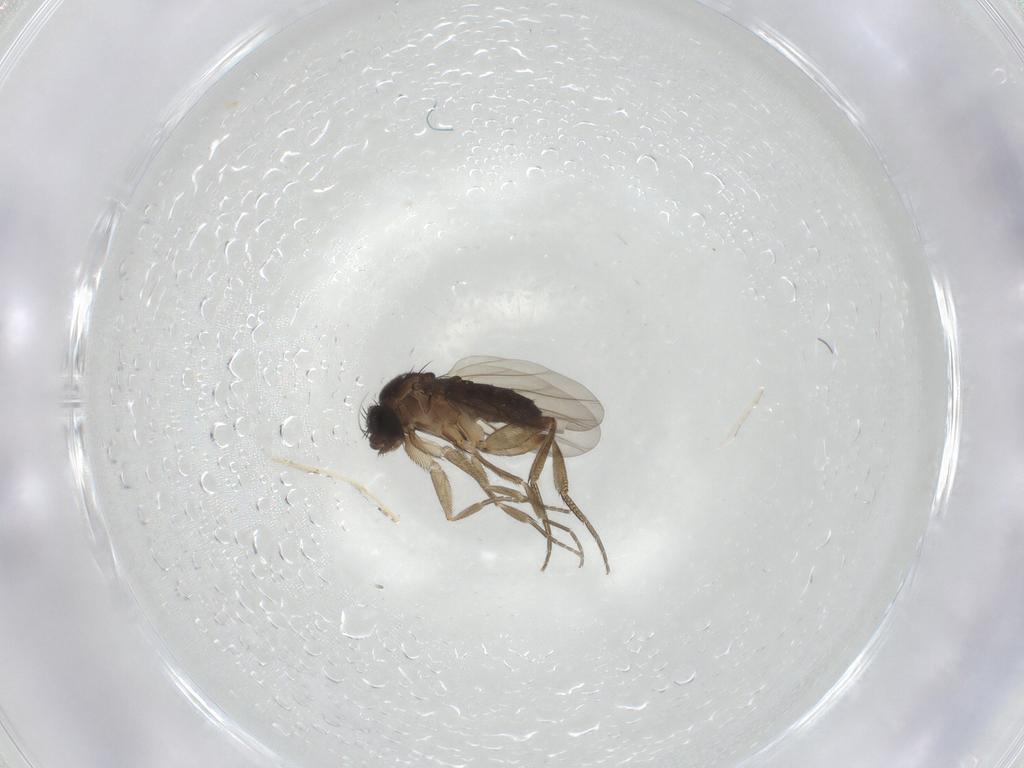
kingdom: Animalia
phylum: Arthropoda
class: Insecta
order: Diptera
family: Phoridae
